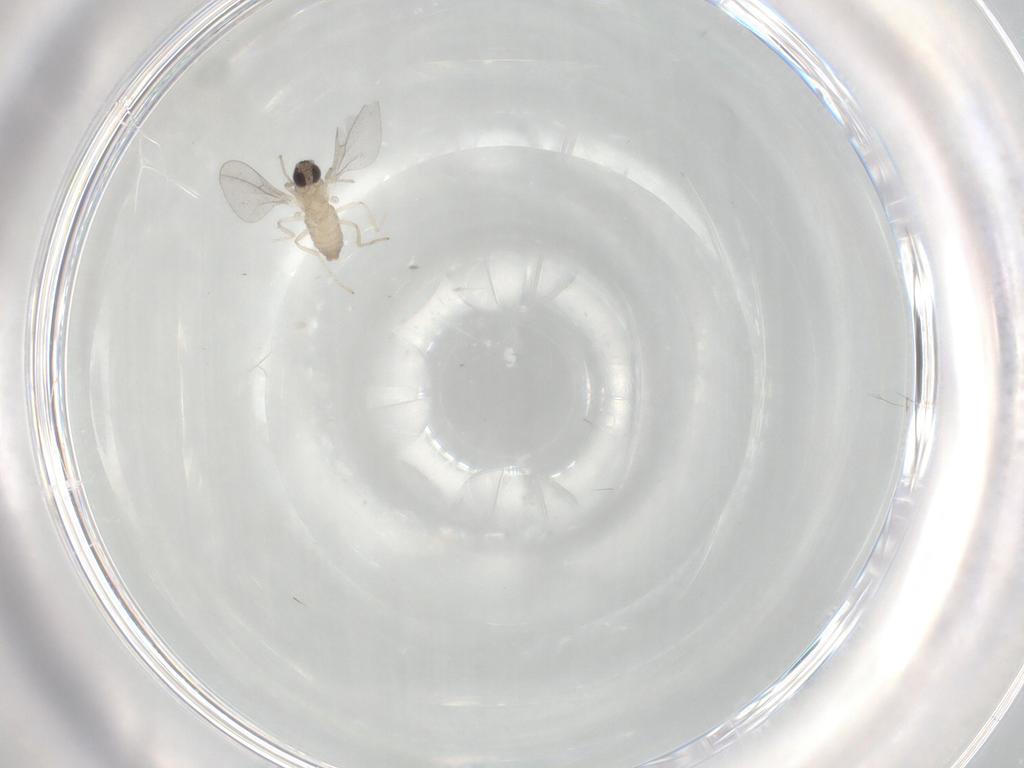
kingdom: Animalia
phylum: Arthropoda
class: Insecta
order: Diptera
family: Cecidomyiidae
